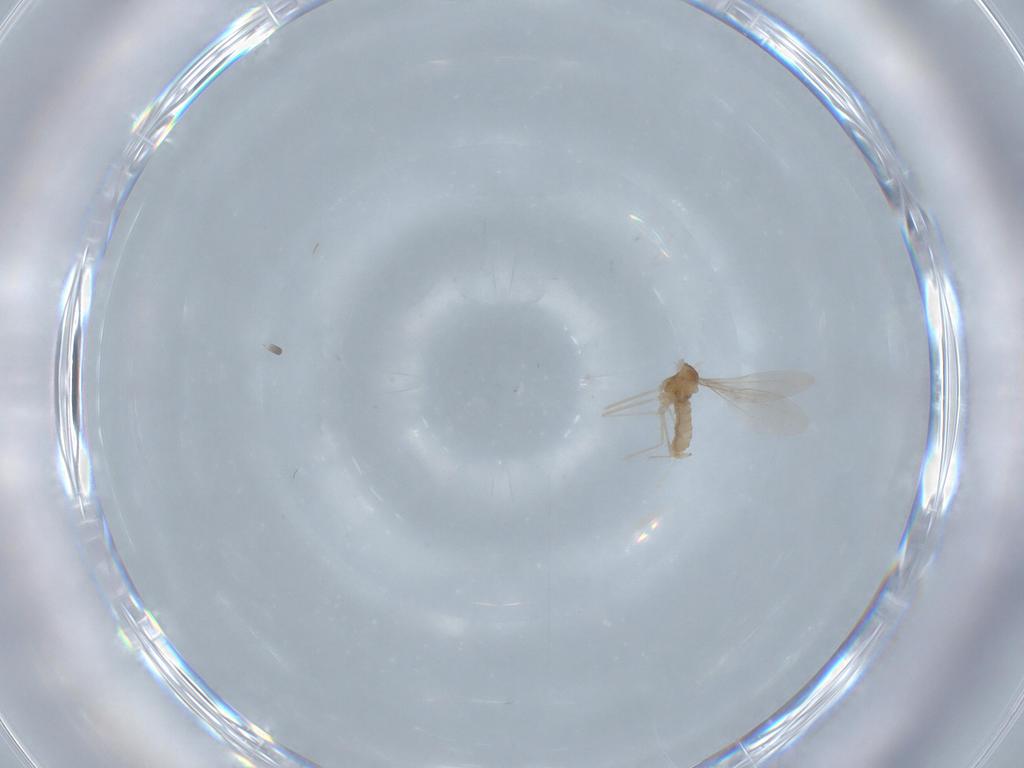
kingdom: Animalia
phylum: Arthropoda
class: Insecta
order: Diptera
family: Cecidomyiidae
